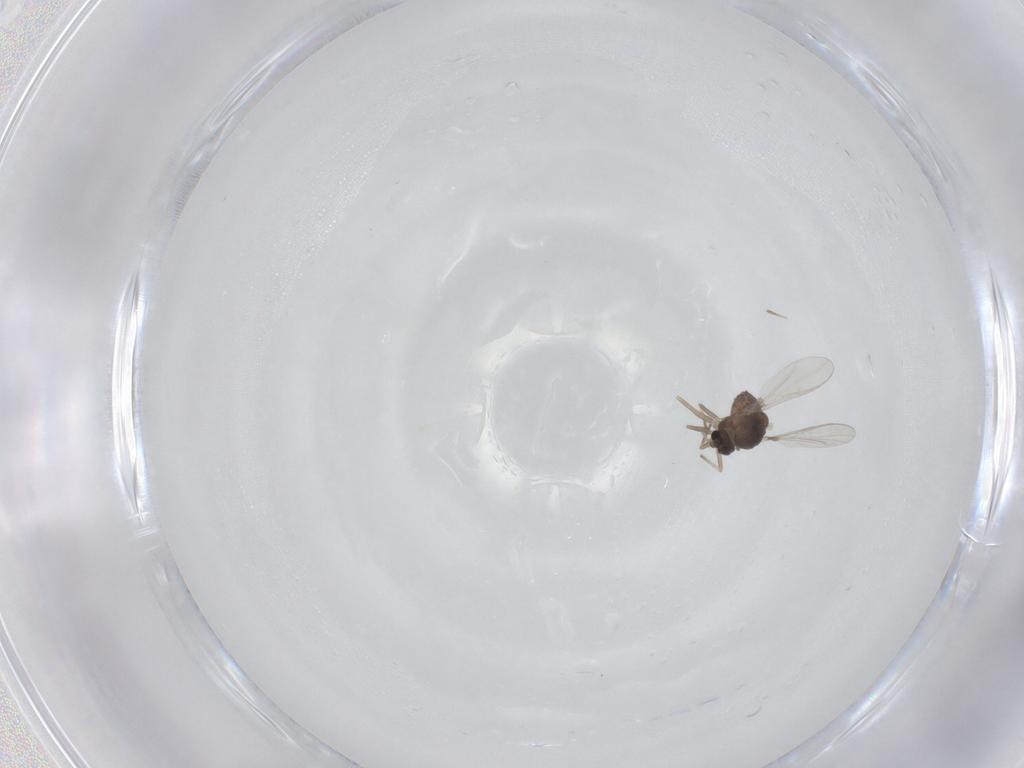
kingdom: Animalia
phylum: Arthropoda
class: Insecta
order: Diptera
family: Chironomidae
